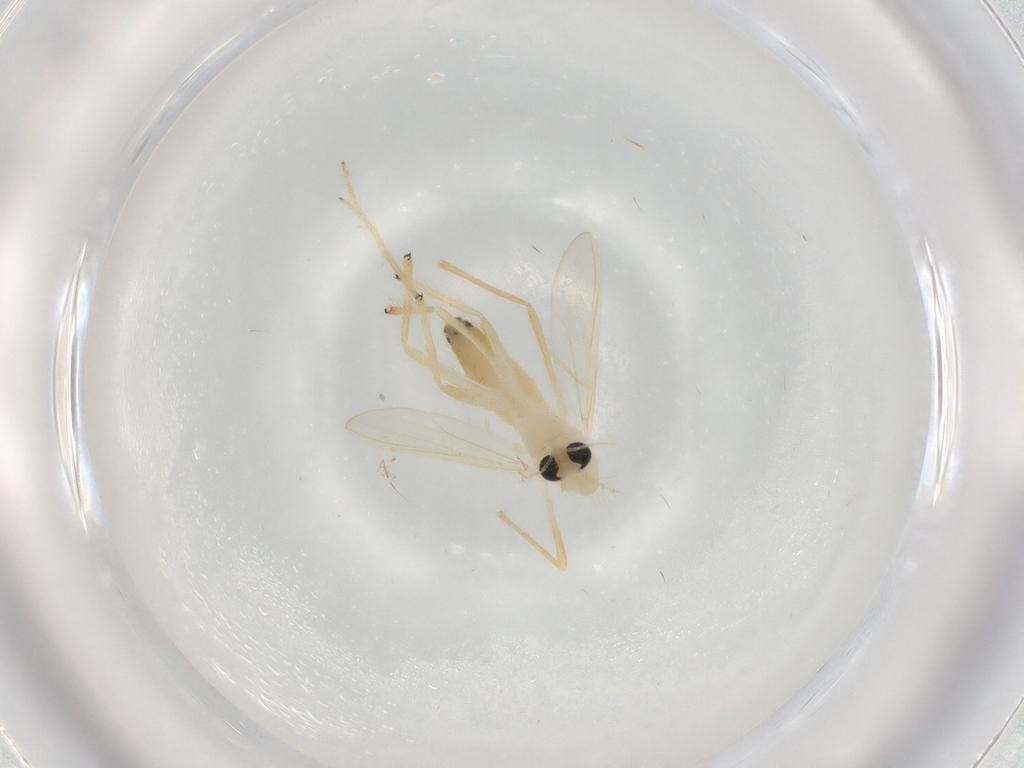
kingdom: Animalia
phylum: Arthropoda
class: Insecta
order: Diptera
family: Chironomidae
